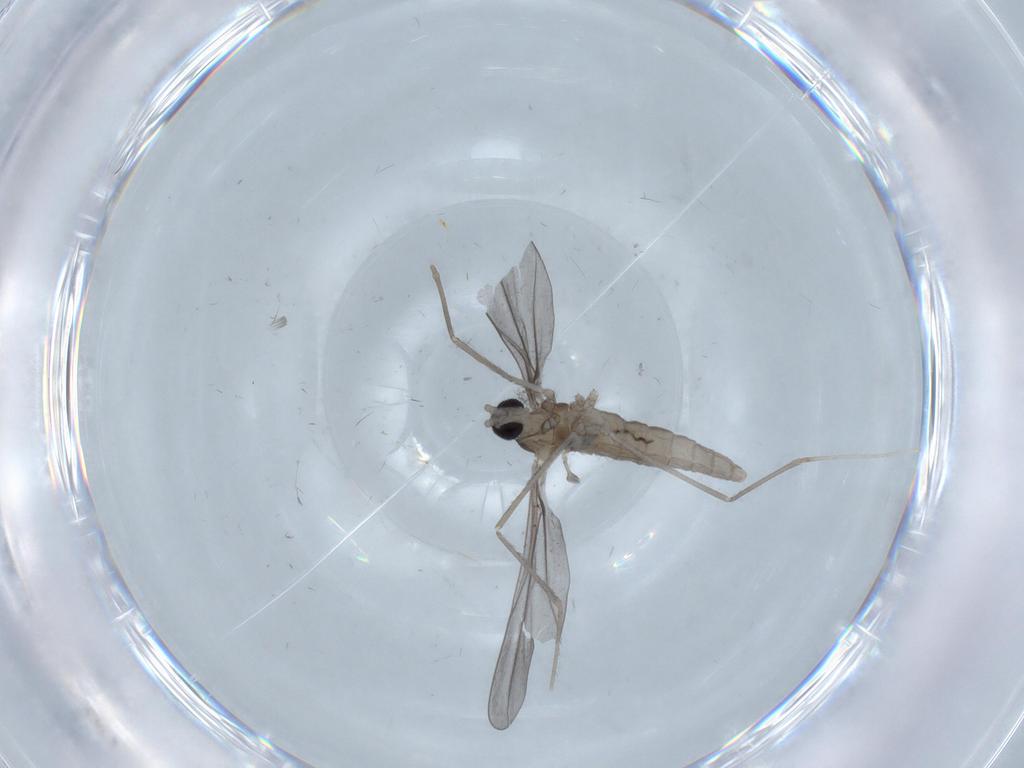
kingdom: Animalia
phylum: Arthropoda
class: Insecta
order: Diptera
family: Cecidomyiidae
